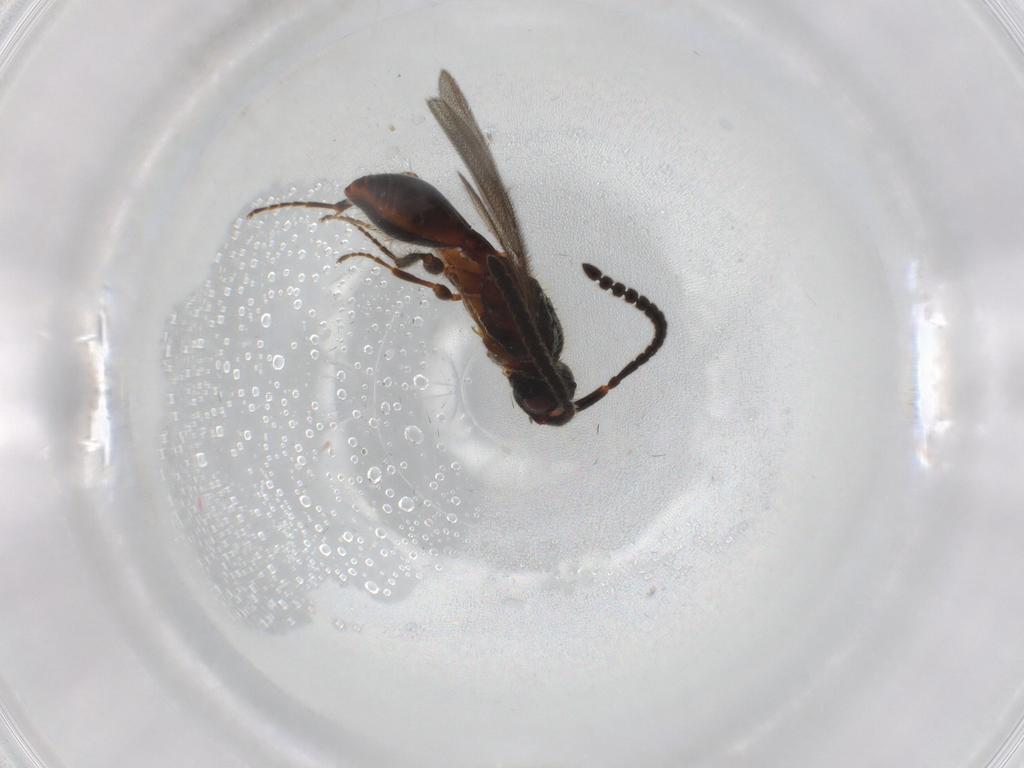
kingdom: Animalia
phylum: Arthropoda
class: Insecta
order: Hymenoptera
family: Diapriidae
